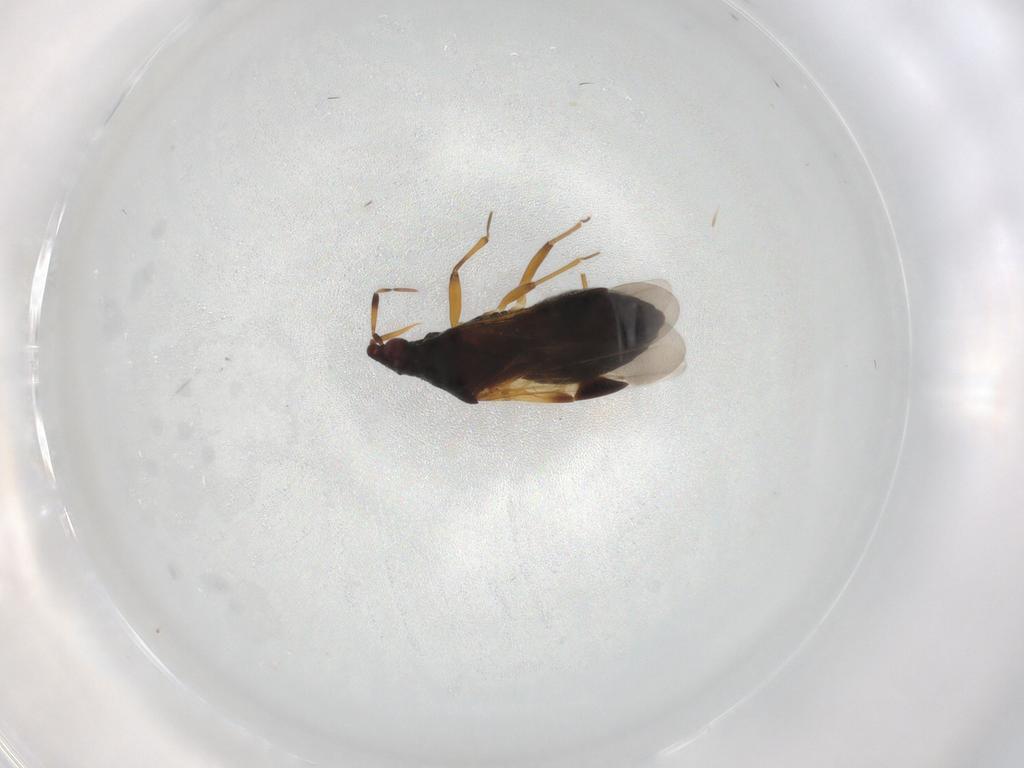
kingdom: Animalia
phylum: Arthropoda
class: Insecta
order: Hemiptera
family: Anthocoridae
